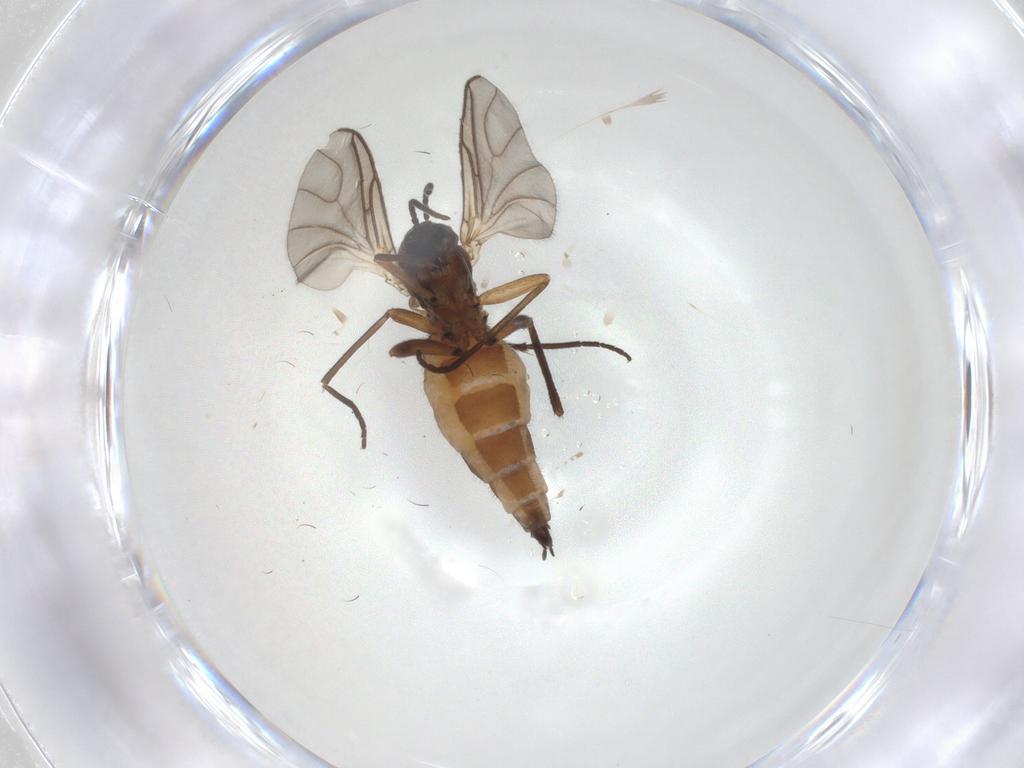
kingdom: Animalia
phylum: Arthropoda
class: Insecta
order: Diptera
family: Sciaridae
